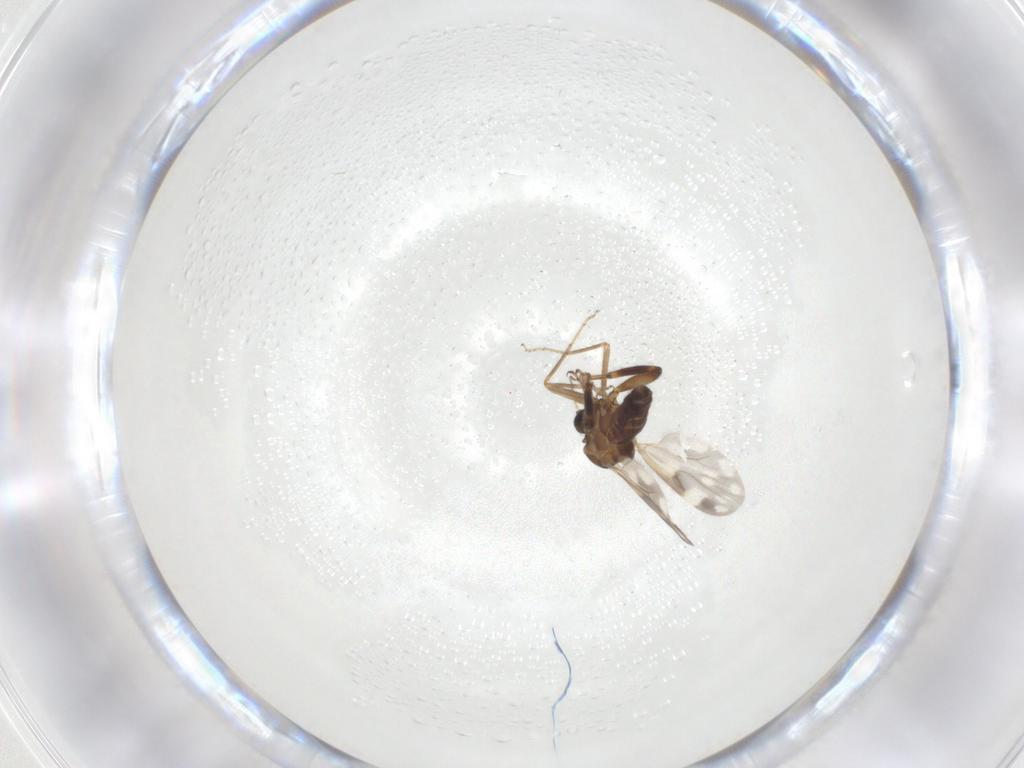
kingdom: Animalia
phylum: Arthropoda
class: Insecta
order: Diptera
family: Ceratopogonidae
